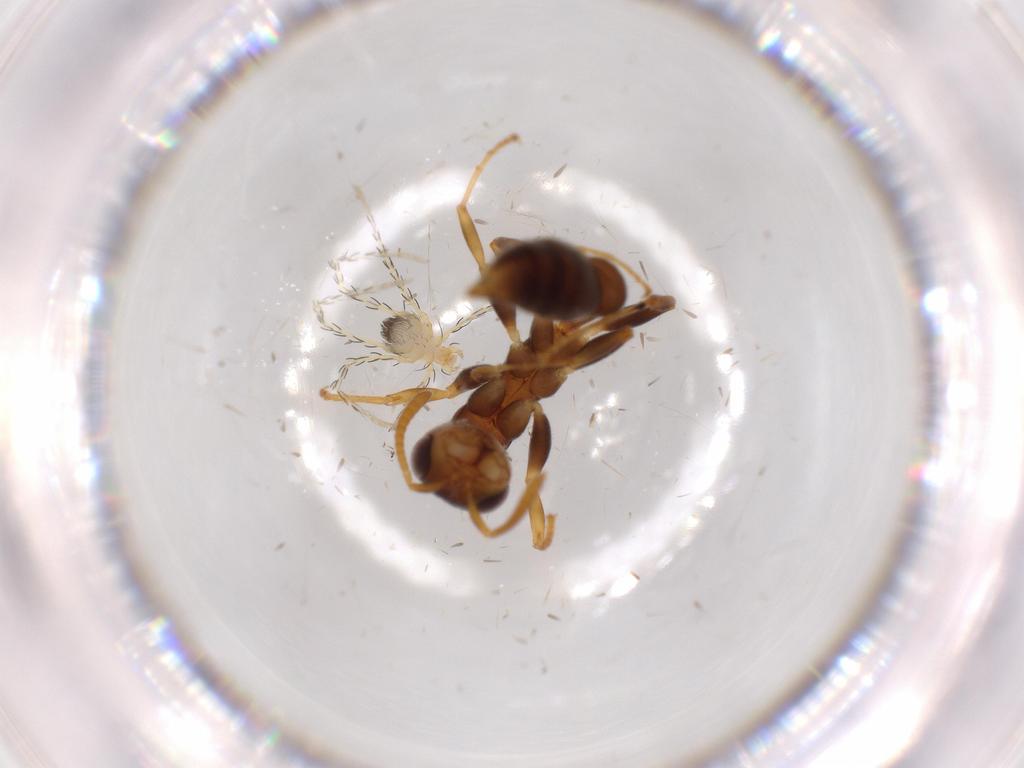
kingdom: Animalia
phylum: Arthropoda
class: Insecta
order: Hymenoptera
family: Formicidae
